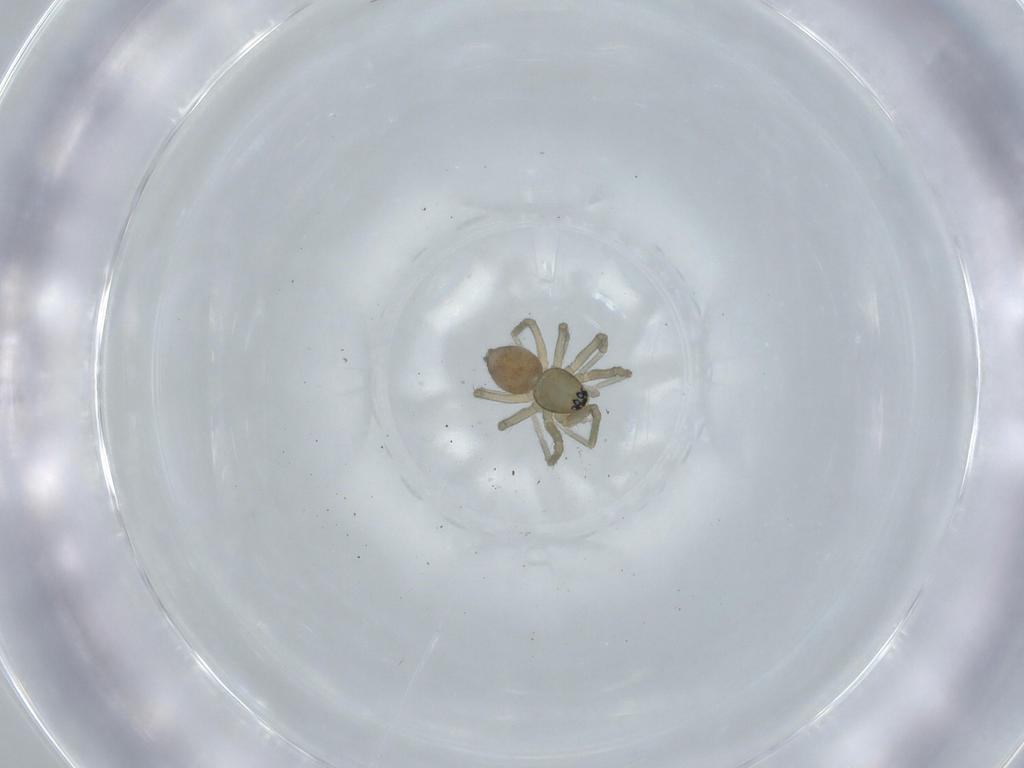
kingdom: Animalia
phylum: Arthropoda
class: Arachnida
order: Araneae
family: Linyphiidae
